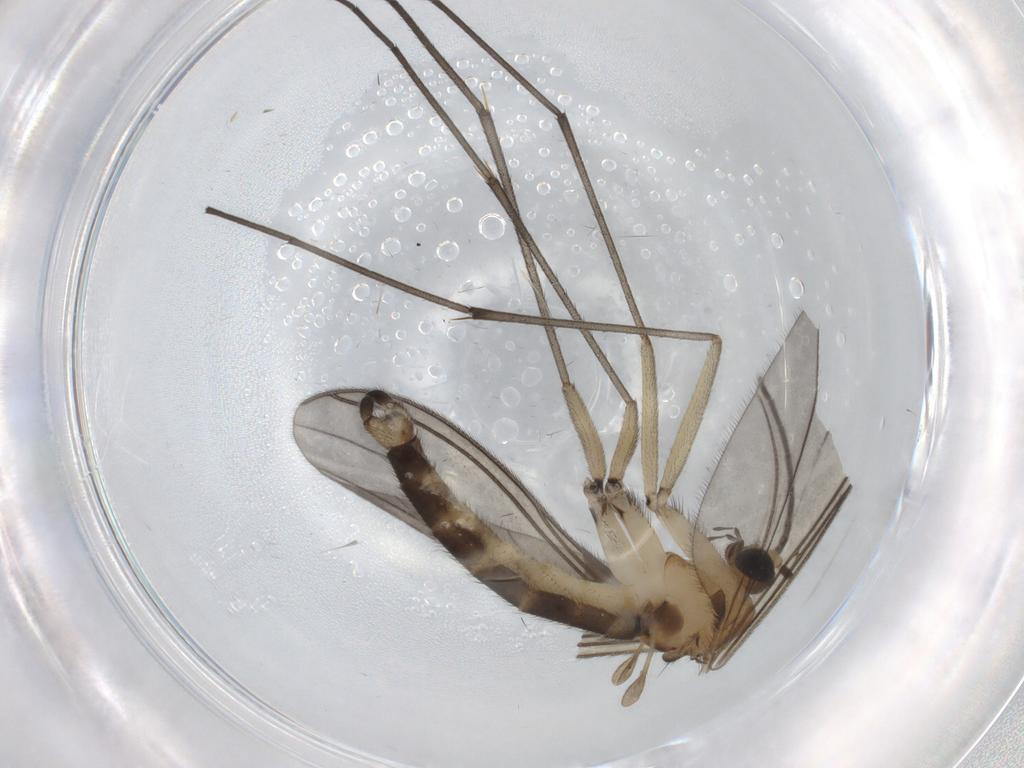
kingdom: Animalia
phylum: Arthropoda
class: Insecta
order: Diptera
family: Sciaridae
